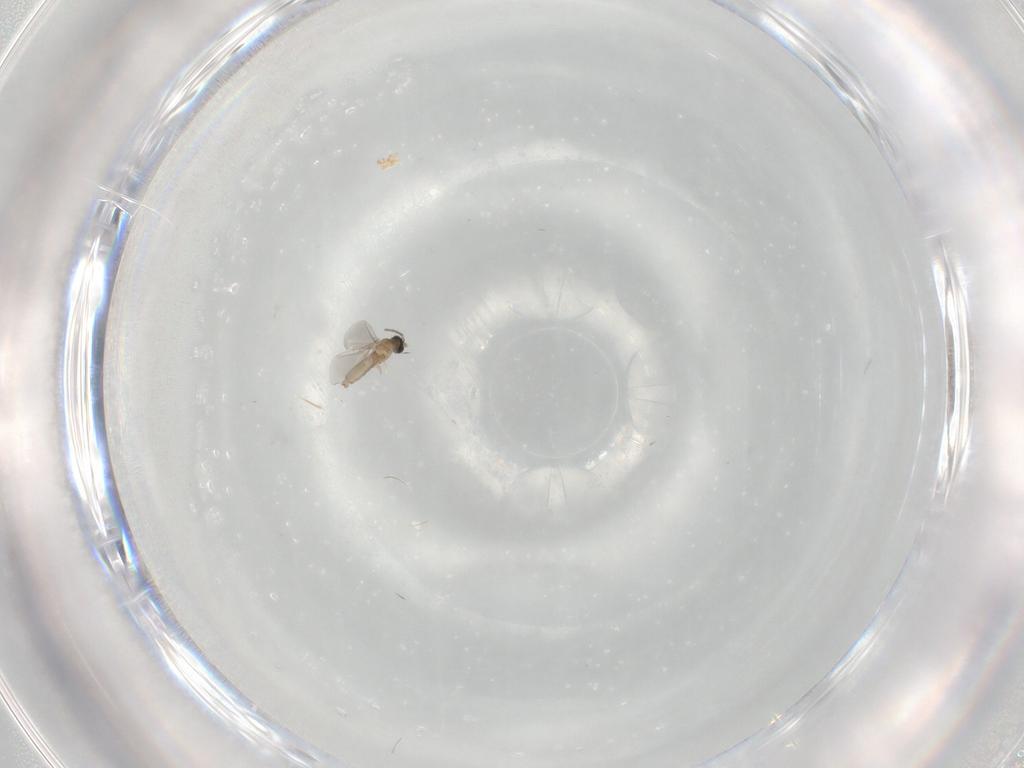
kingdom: Animalia
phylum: Arthropoda
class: Insecta
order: Diptera
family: Cecidomyiidae
